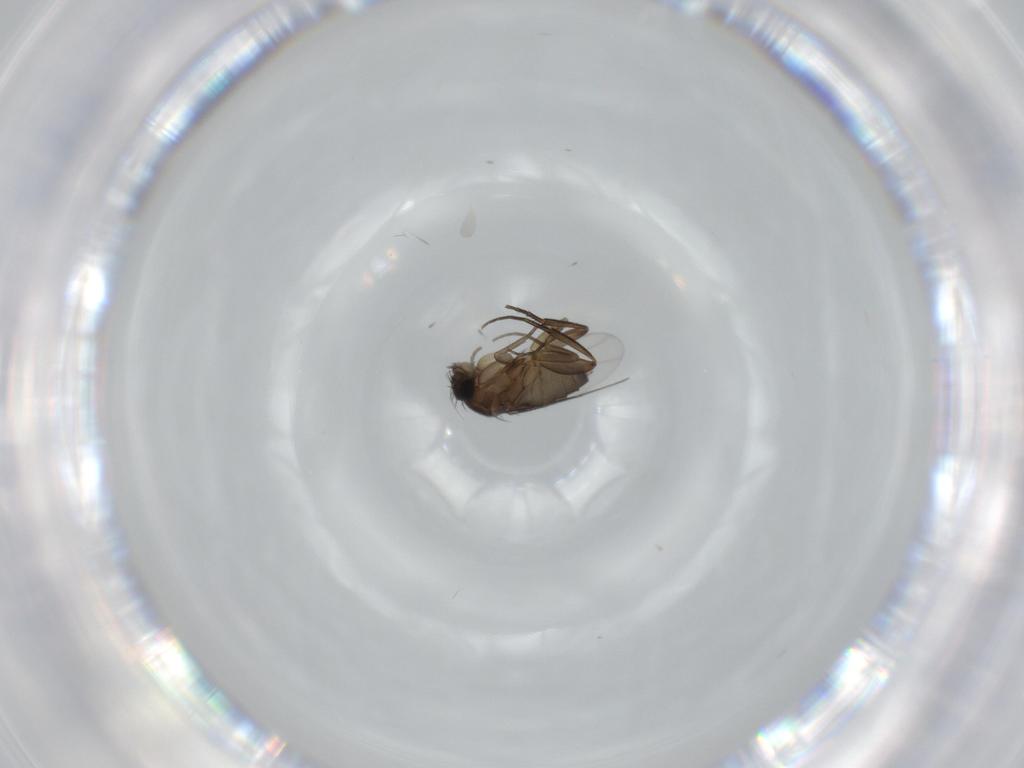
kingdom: Animalia
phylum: Arthropoda
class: Insecta
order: Diptera
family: Phoridae
